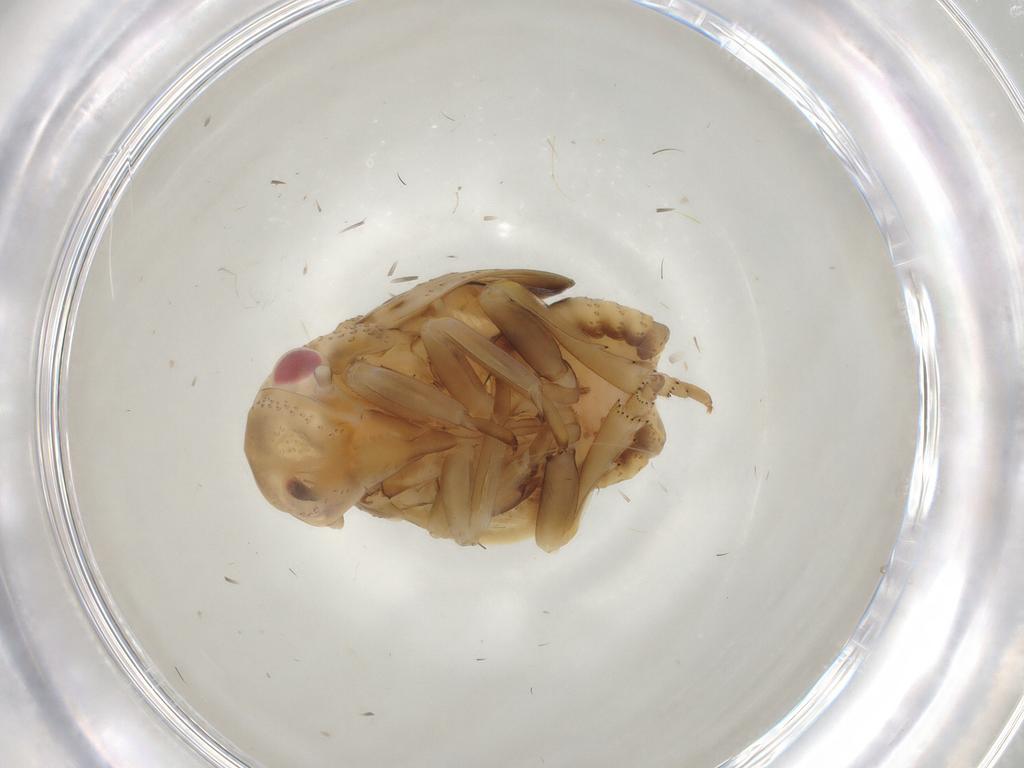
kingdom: Animalia
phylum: Arthropoda
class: Insecta
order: Hemiptera
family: Flatidae
